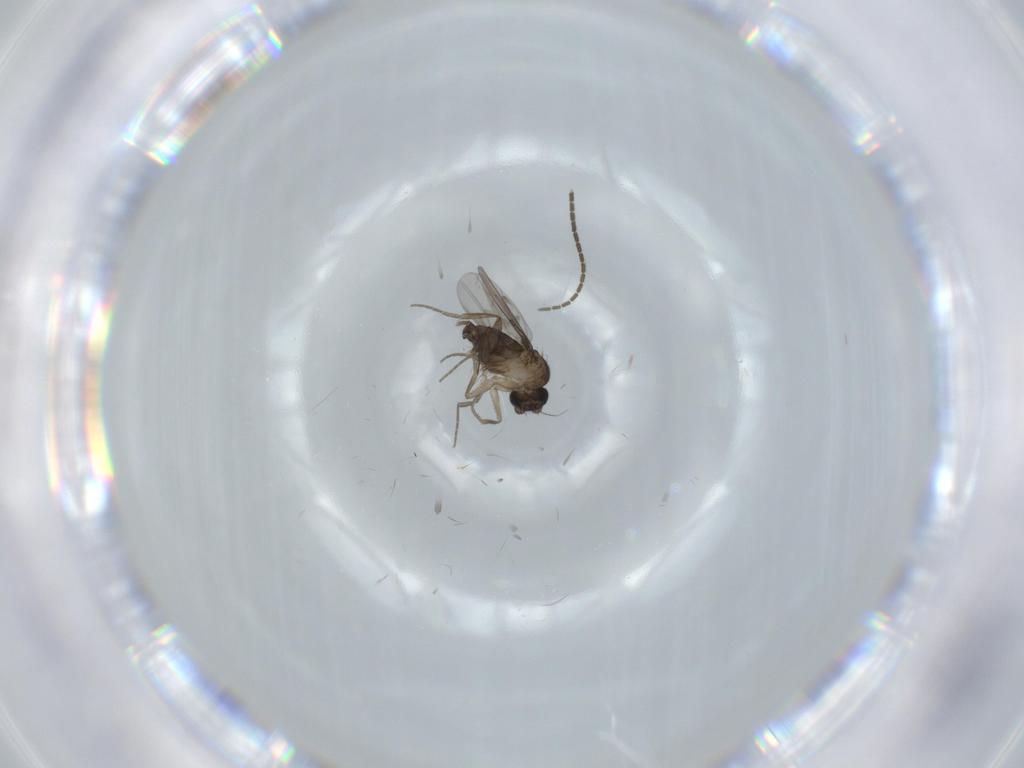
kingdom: Animalia
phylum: Arthropoda
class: Insecta
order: Diptera
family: Sciaridae
